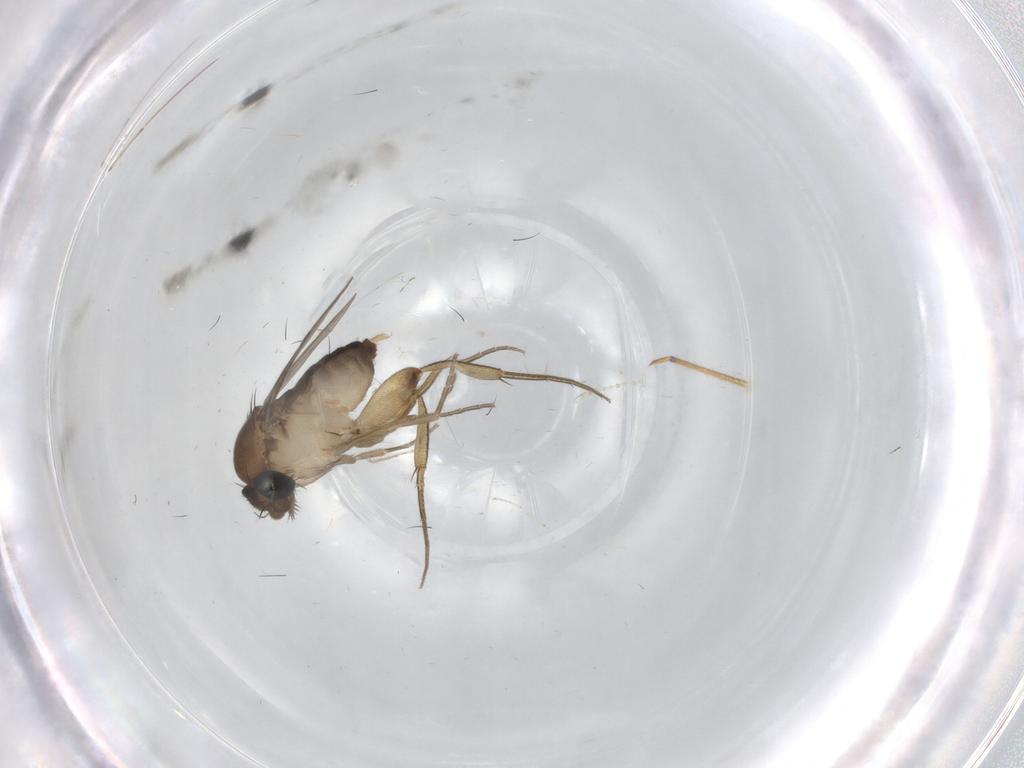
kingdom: Animalia
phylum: Arthropoda
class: Insecta
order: Diptera
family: Phoridae
